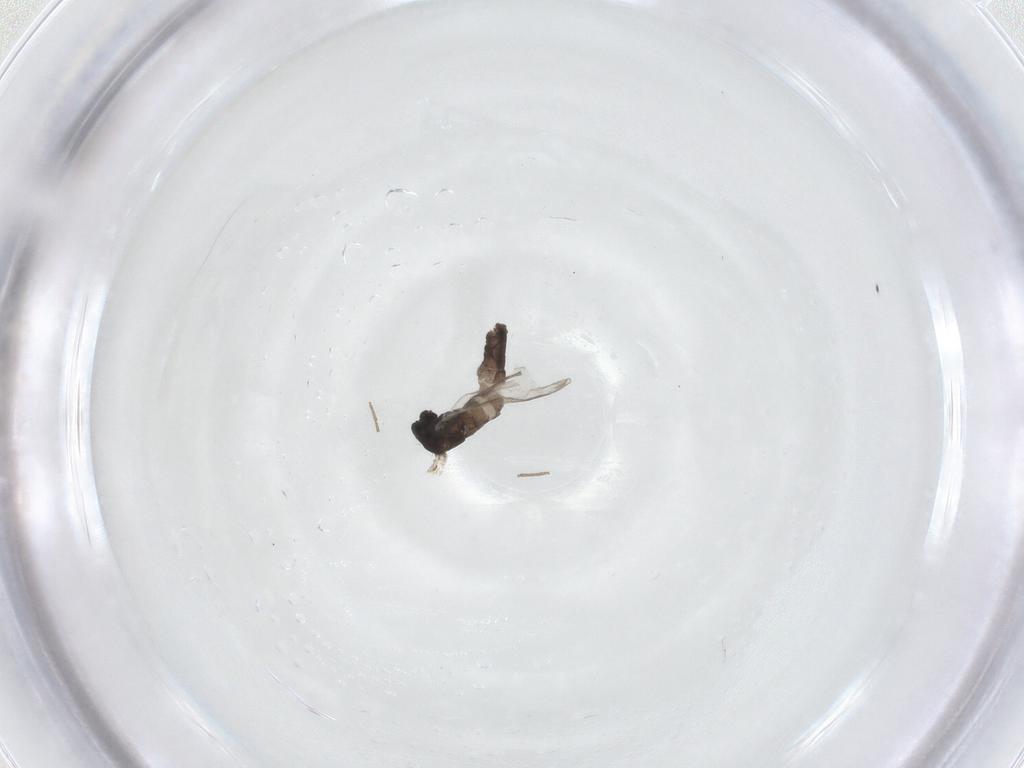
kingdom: Animalia
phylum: Arthropoda
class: Insecta
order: Diptera
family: Chironomidae
